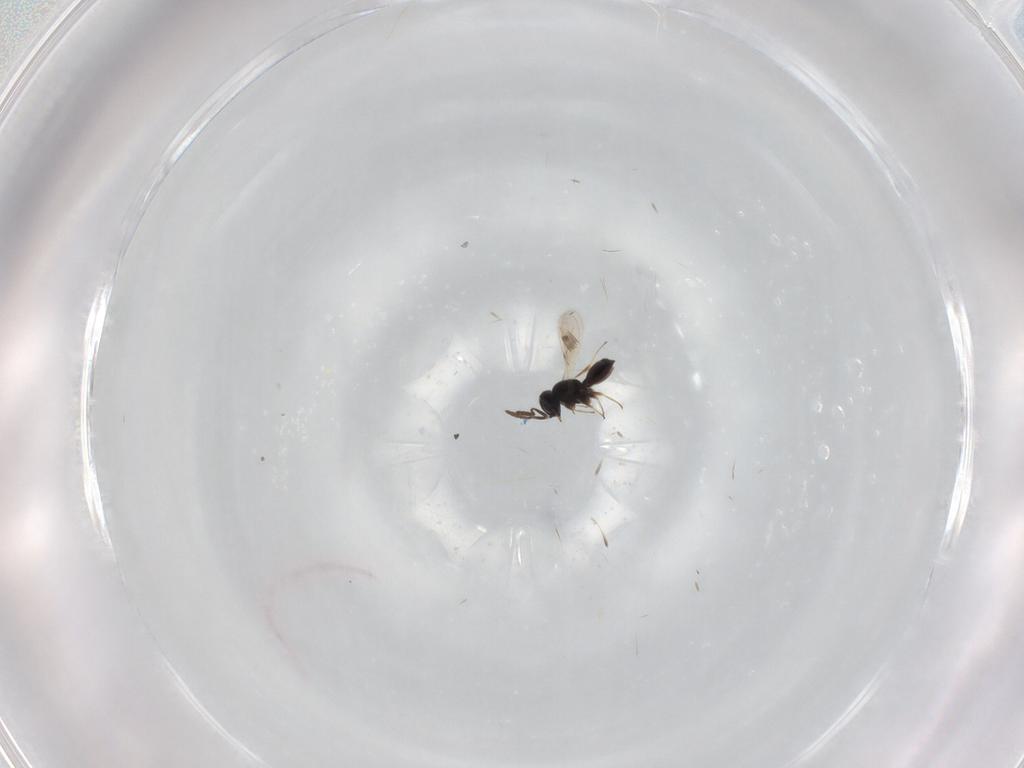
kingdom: Animalia
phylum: Arthropoda
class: Insecta
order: Hymenoptera
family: Scelionidae
